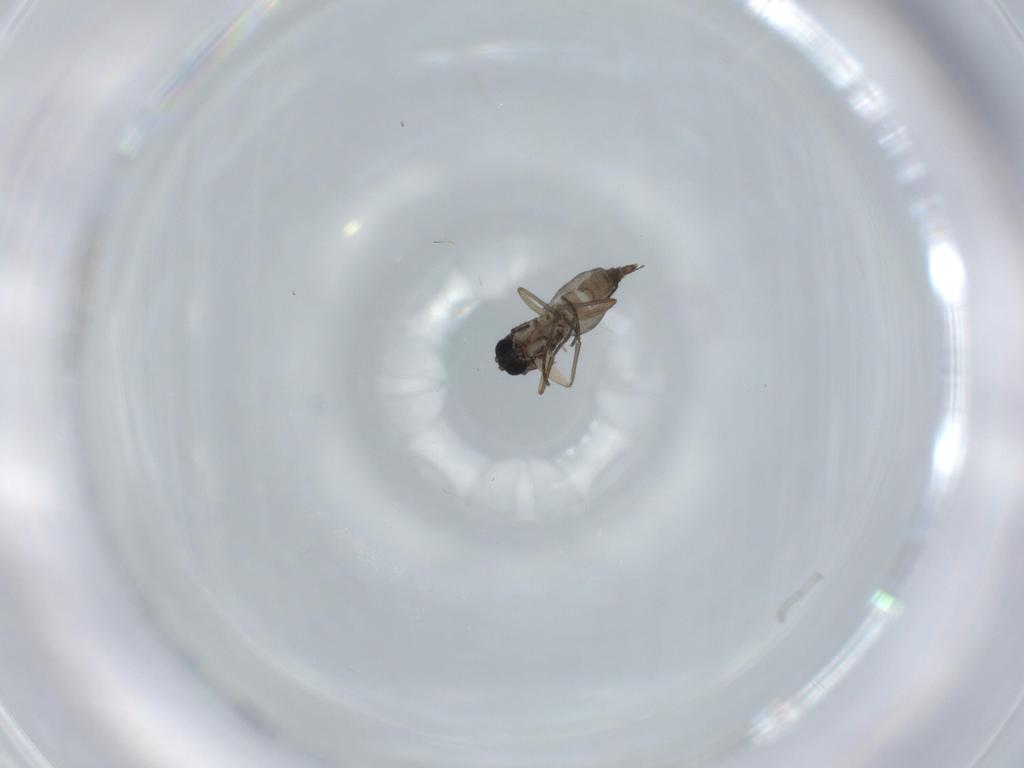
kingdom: Animalia
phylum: Arthropoda
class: Insecta
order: Diptera
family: Sciaridae
